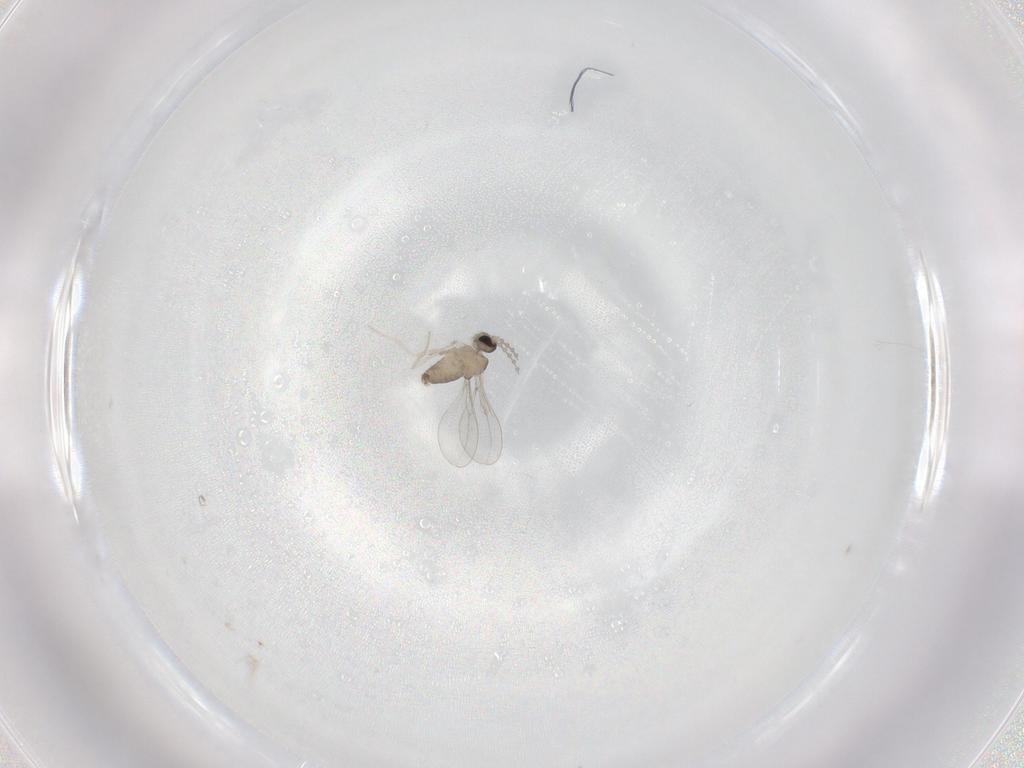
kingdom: Animalia
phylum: Arthropoda
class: Insecta
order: Diptera
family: Cecidomyiidae
